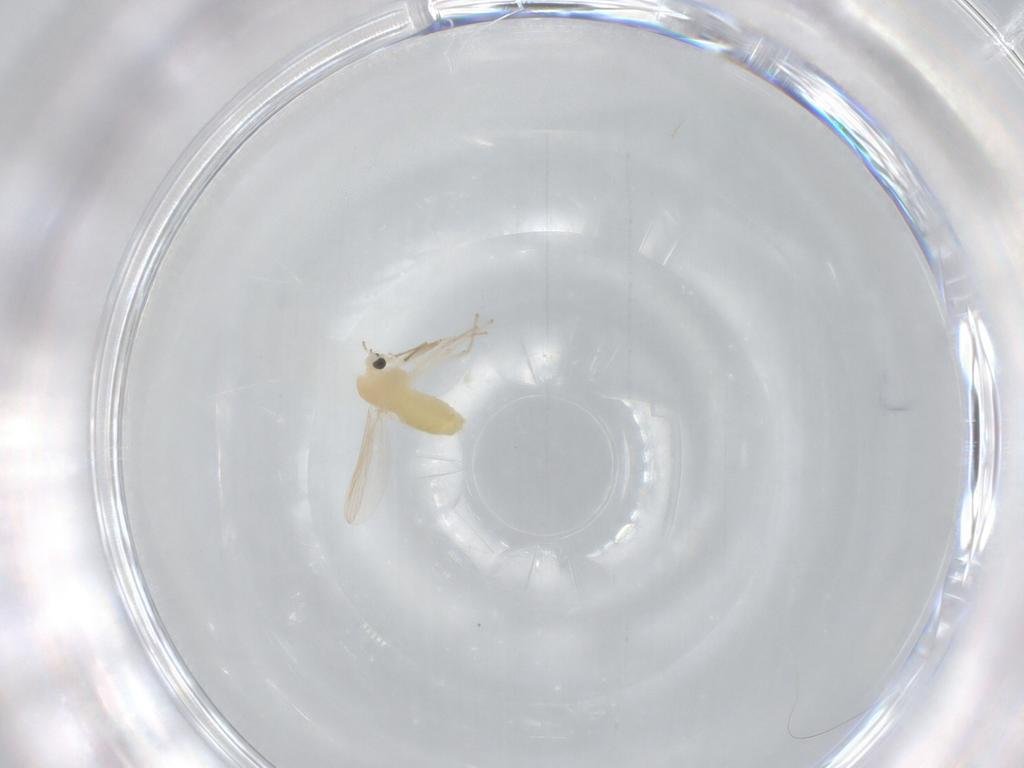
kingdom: Animalia
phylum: Arthropoda
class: Insecta
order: Diptera
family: Chironomidae
